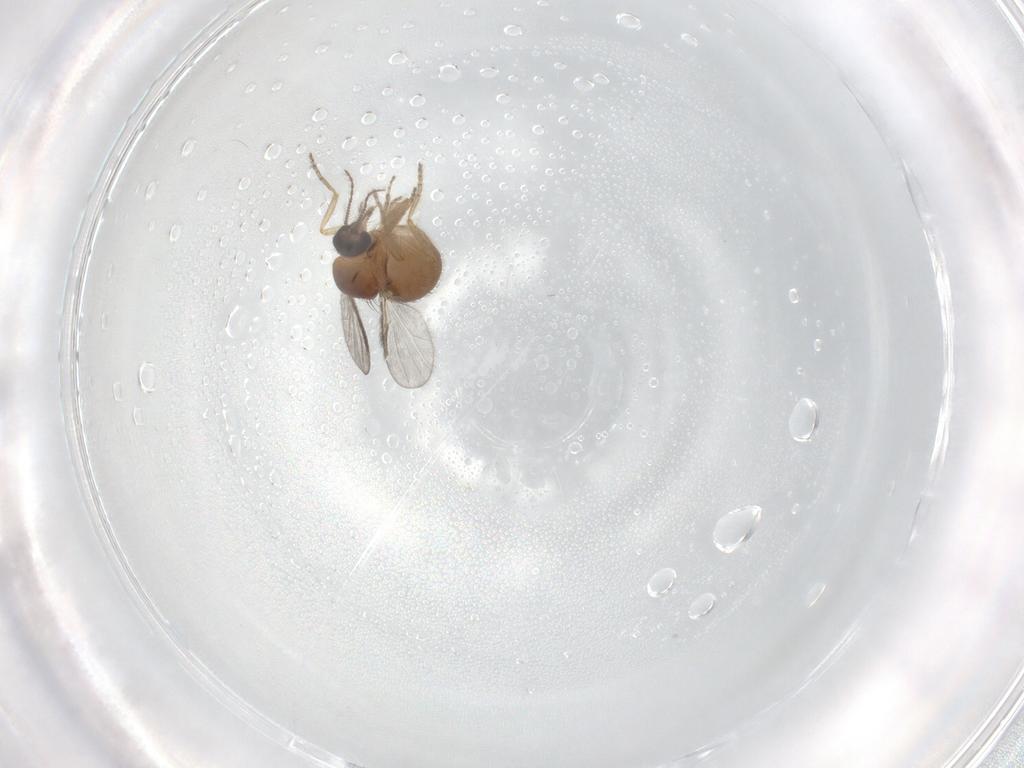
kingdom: Animalia
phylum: Arthropoda
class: Insecta
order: Diptera
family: Ceratopogonidae
